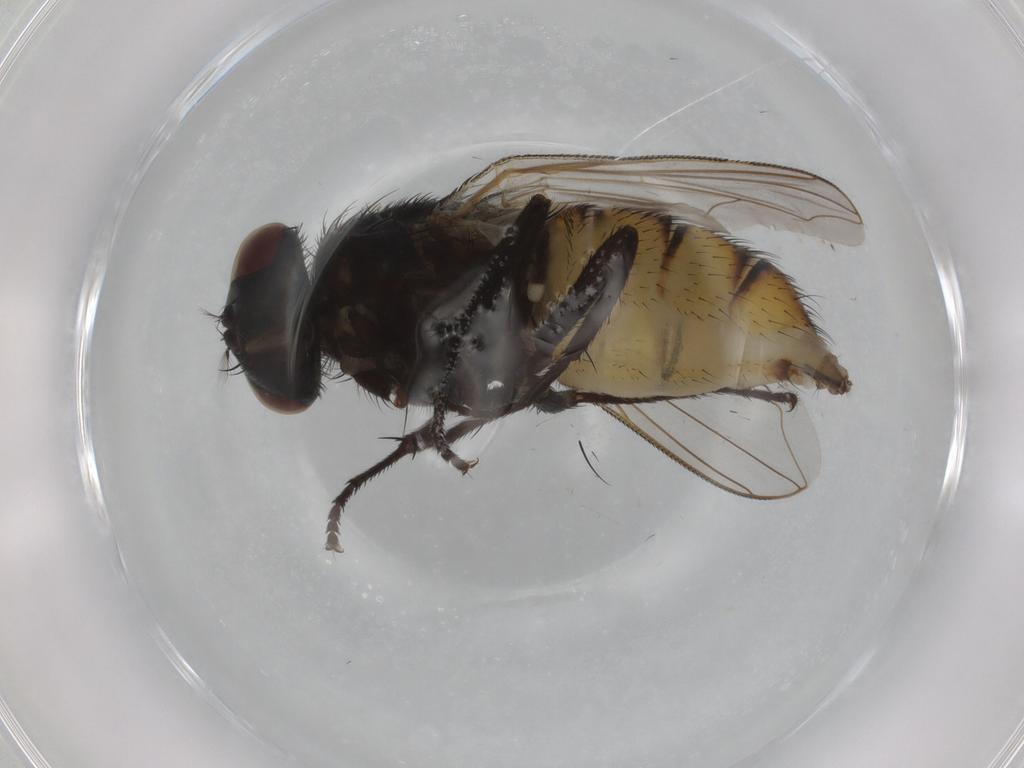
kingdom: Animalia
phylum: Arthropoda
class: Insecta
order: Diptera
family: Muscidae
